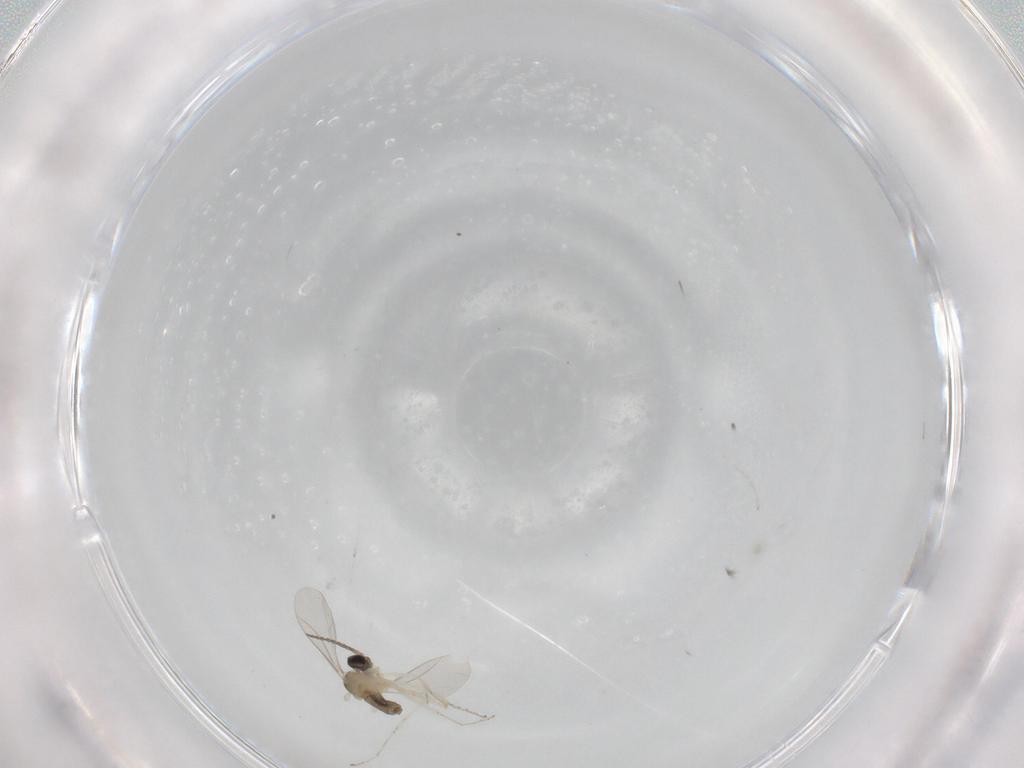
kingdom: Animalia
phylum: Arthropoda
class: Insecta
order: Diptera
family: Cecidomyiidae
